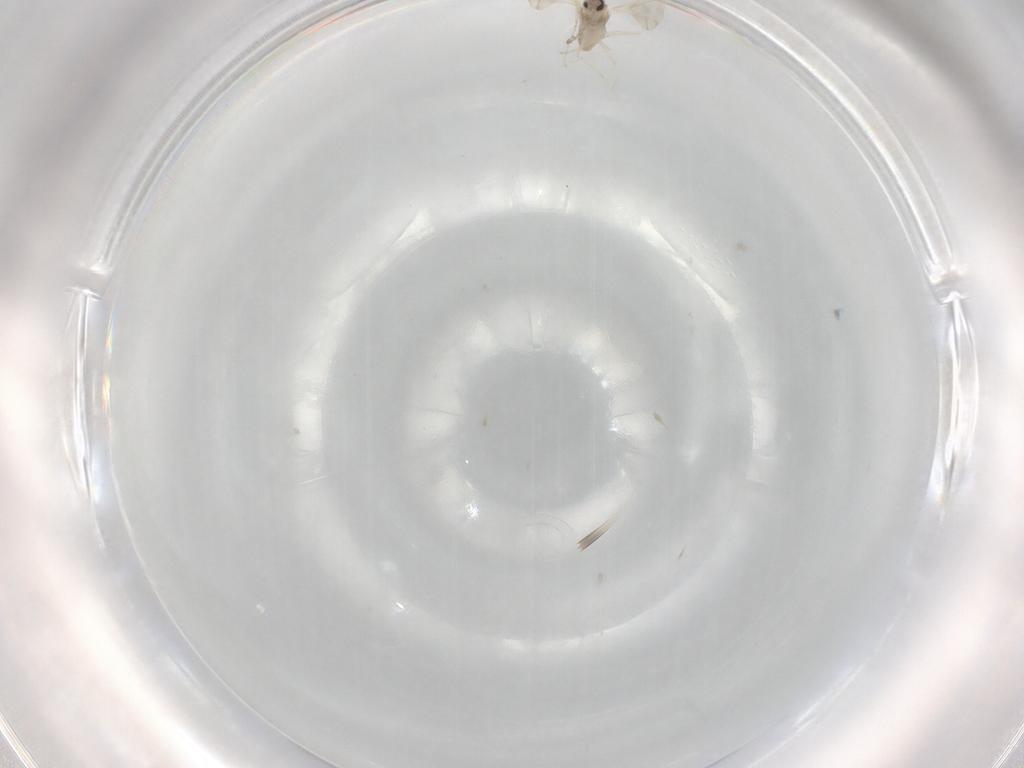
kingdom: Animalia
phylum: Arthropoda
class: Insecta
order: Diptera
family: Cecidomyiidae
